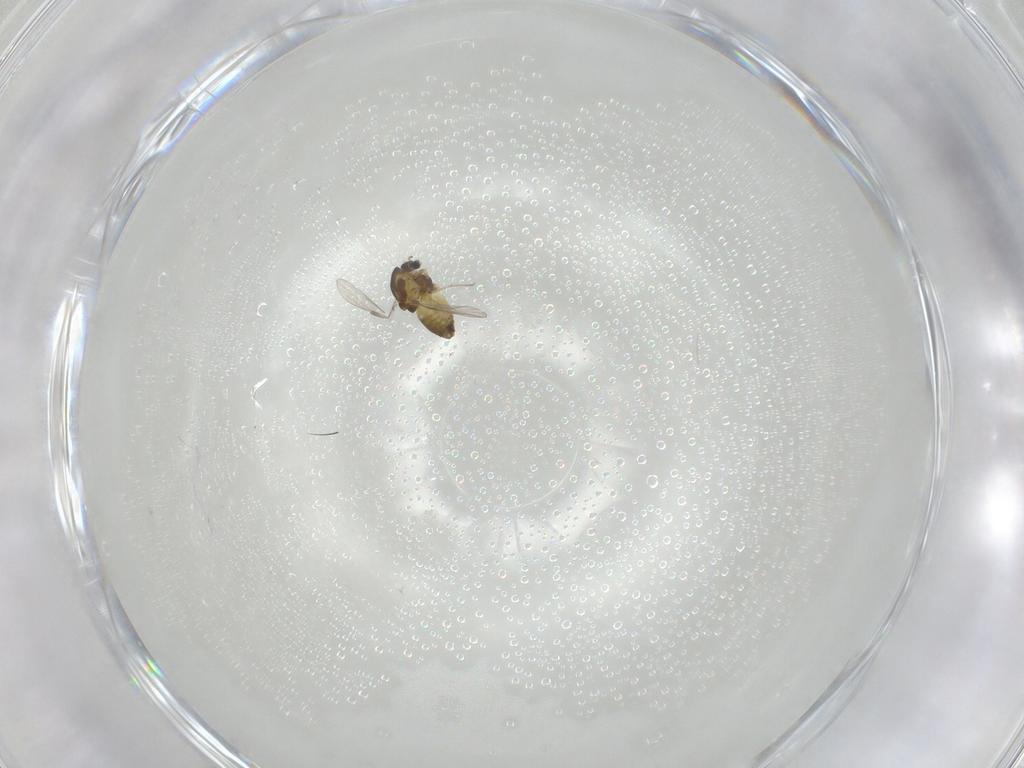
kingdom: Animalia
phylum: Arthropoda
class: Insecta
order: Diptera
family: Chironomidae
